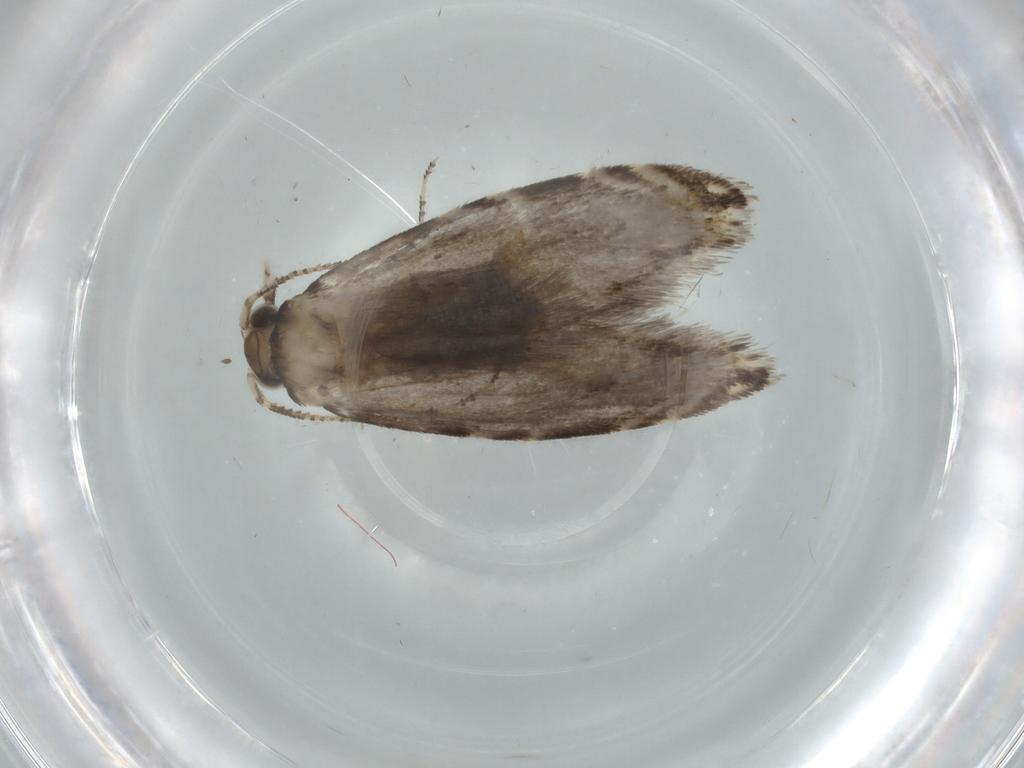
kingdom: Animalia
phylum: Arthropoda
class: Insecta
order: Lepidoptera
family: Tineidae
